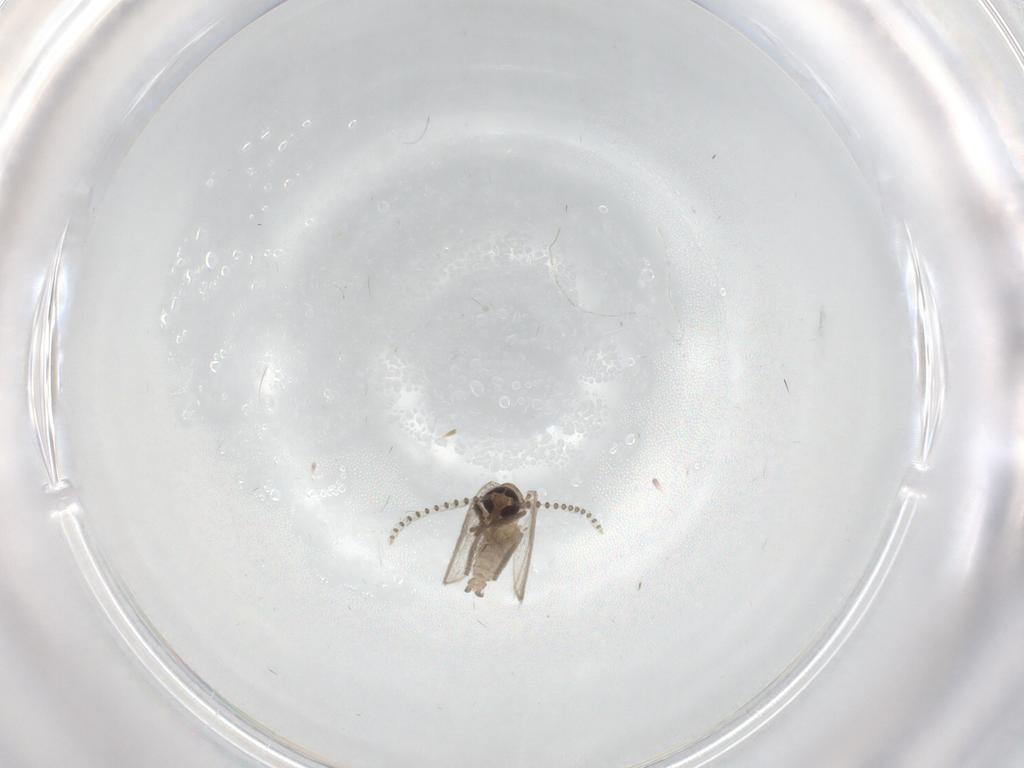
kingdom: Animalia
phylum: Arthropoda
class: Insecta
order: Diptera
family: Psychodidae
